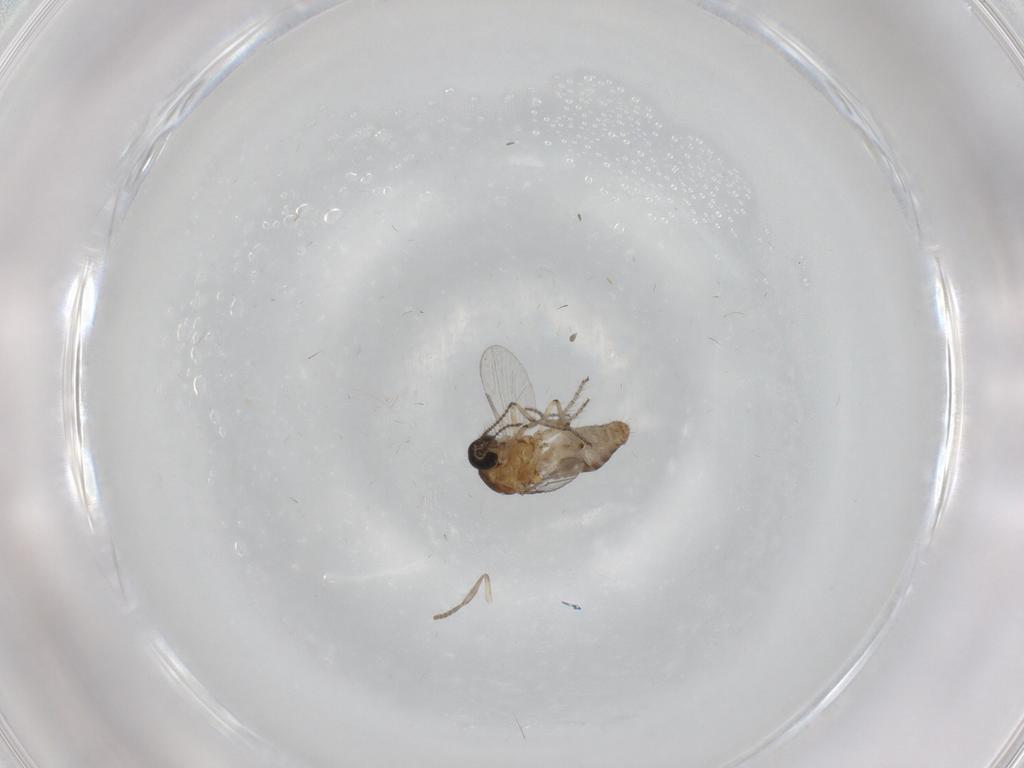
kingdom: Animalia
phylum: Arthropoda
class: Insecta
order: Diptera
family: Ceratopogonidae
